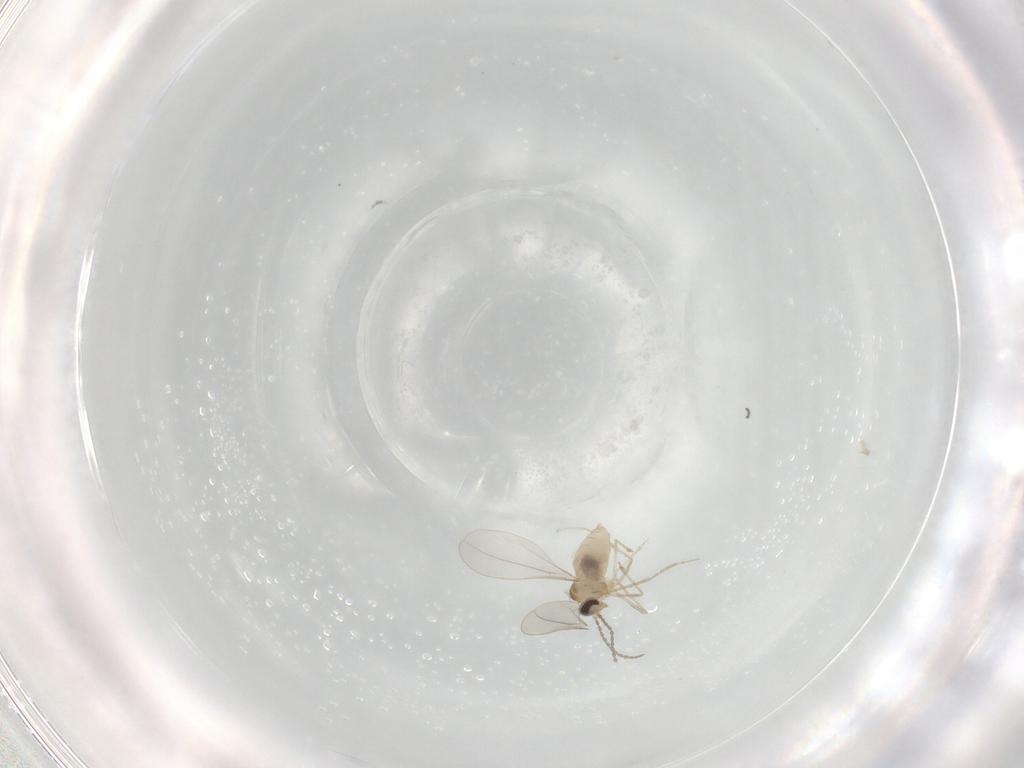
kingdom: Animalia
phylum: Arthropoda
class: Insecta
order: Diptera
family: Cecidomyiidae
